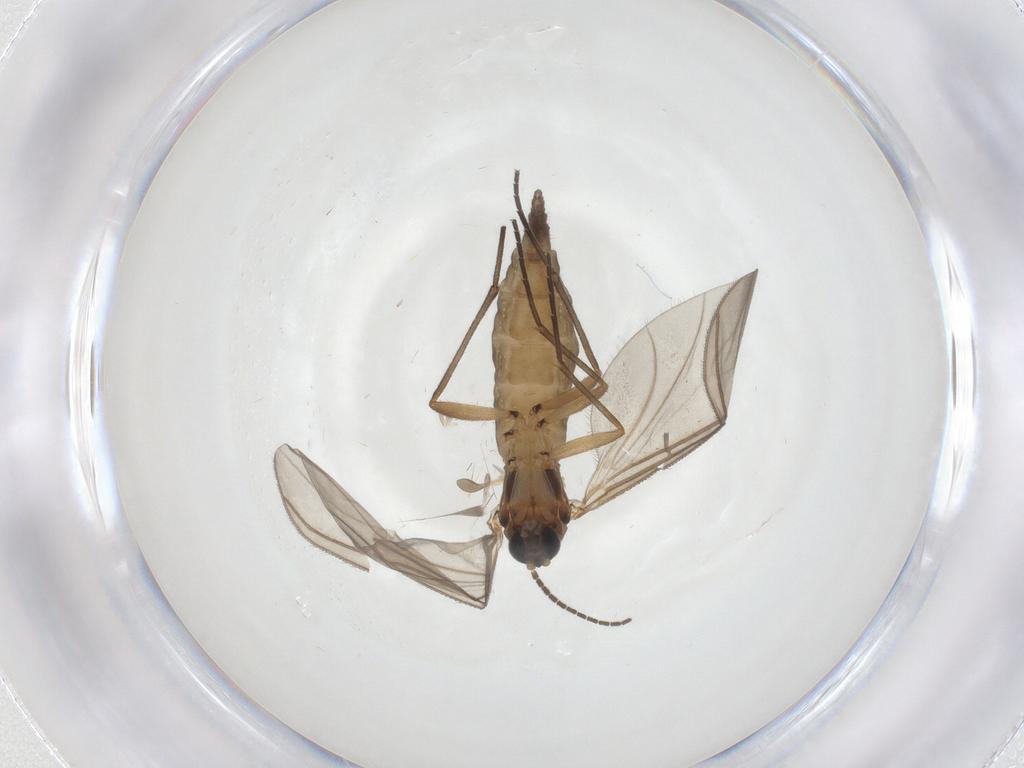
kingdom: Animalia
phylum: Arthropoda
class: Insecta
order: Diptera
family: Sciaridae
